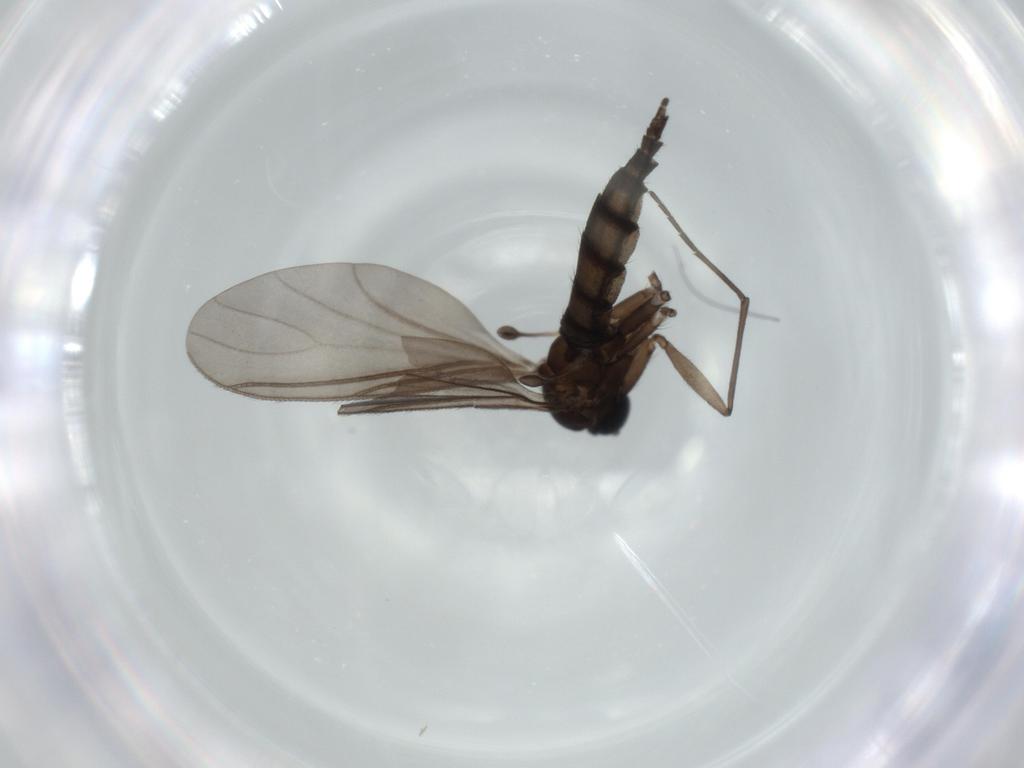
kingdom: Animalia
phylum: Arthropoda
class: Insecta
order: Diptera
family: Sciaridae
